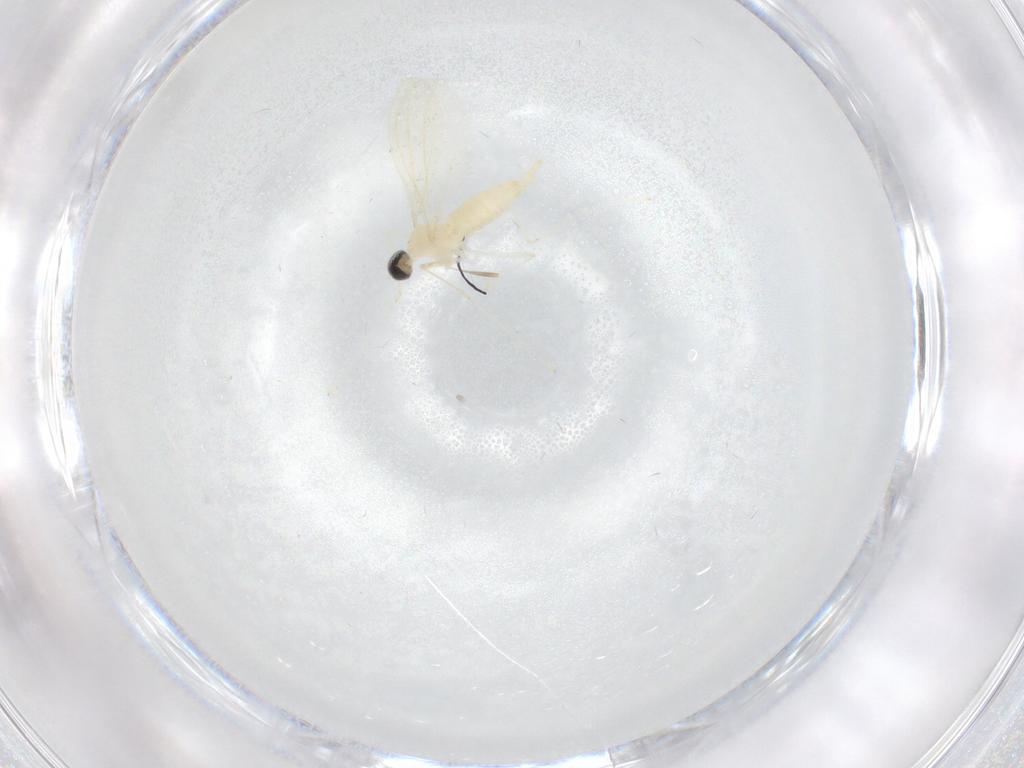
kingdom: Animalia
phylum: Arthropoda
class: Insecta
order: Diptera
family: Cecidomyiidae
